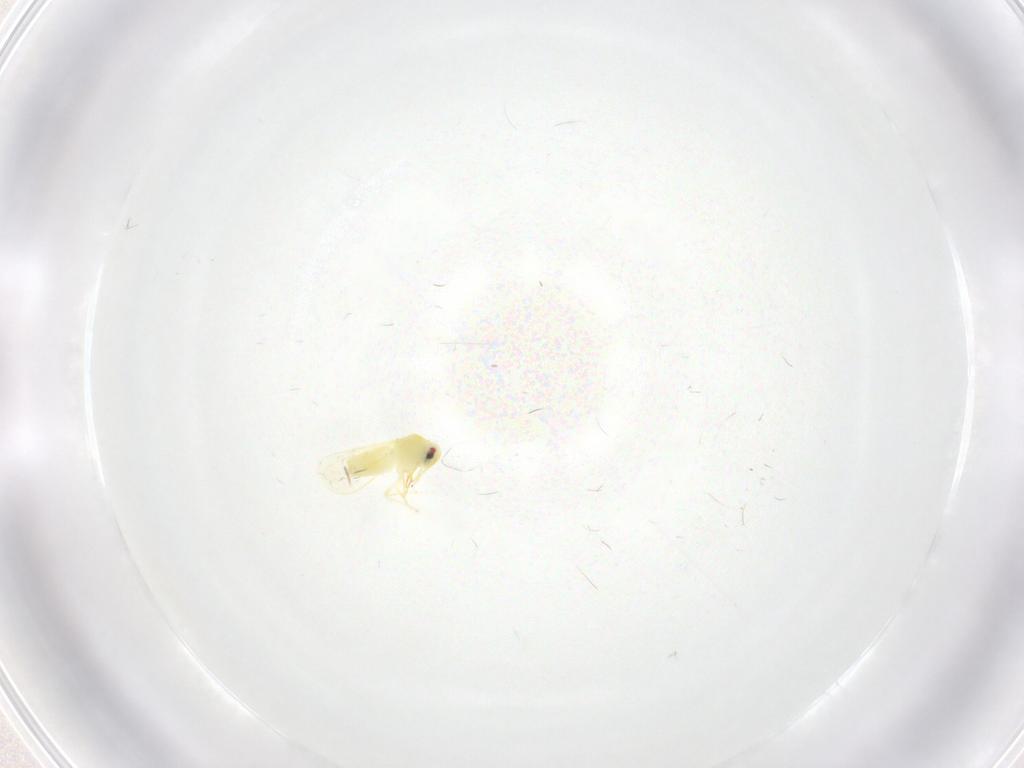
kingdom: Animalia
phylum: Arthropoda
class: Insecta
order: Hemiptera
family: Ceratocombidae
